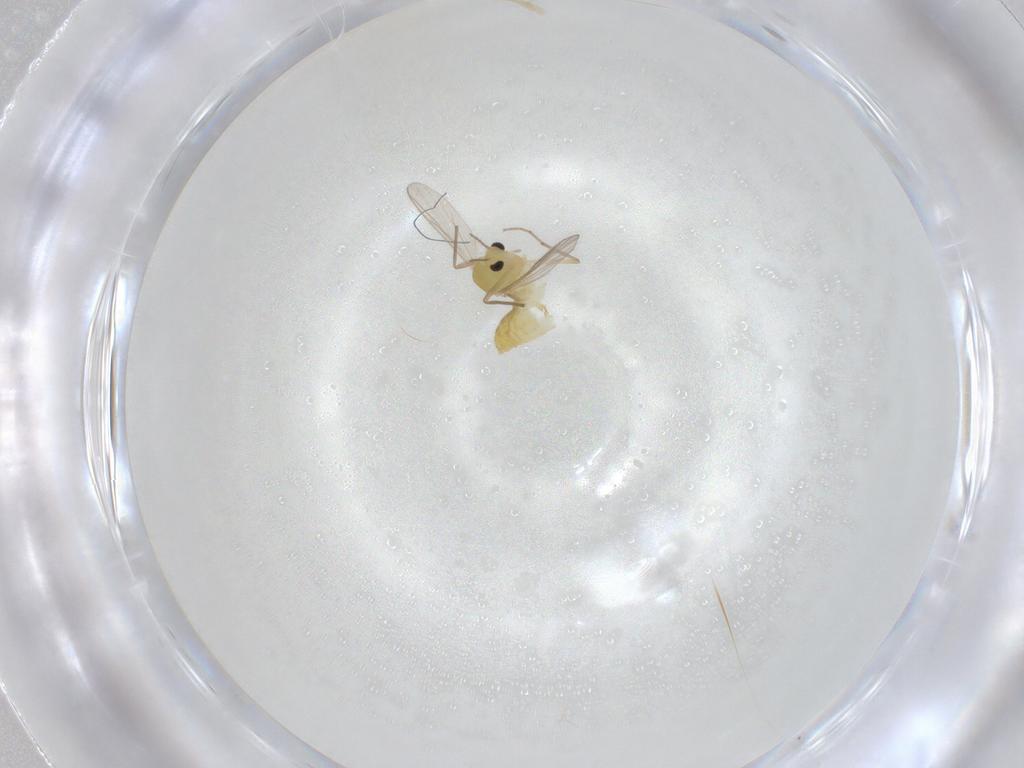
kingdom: Animalia
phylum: Arthropoda
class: Insecta
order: Diptera
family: Chironomidae
